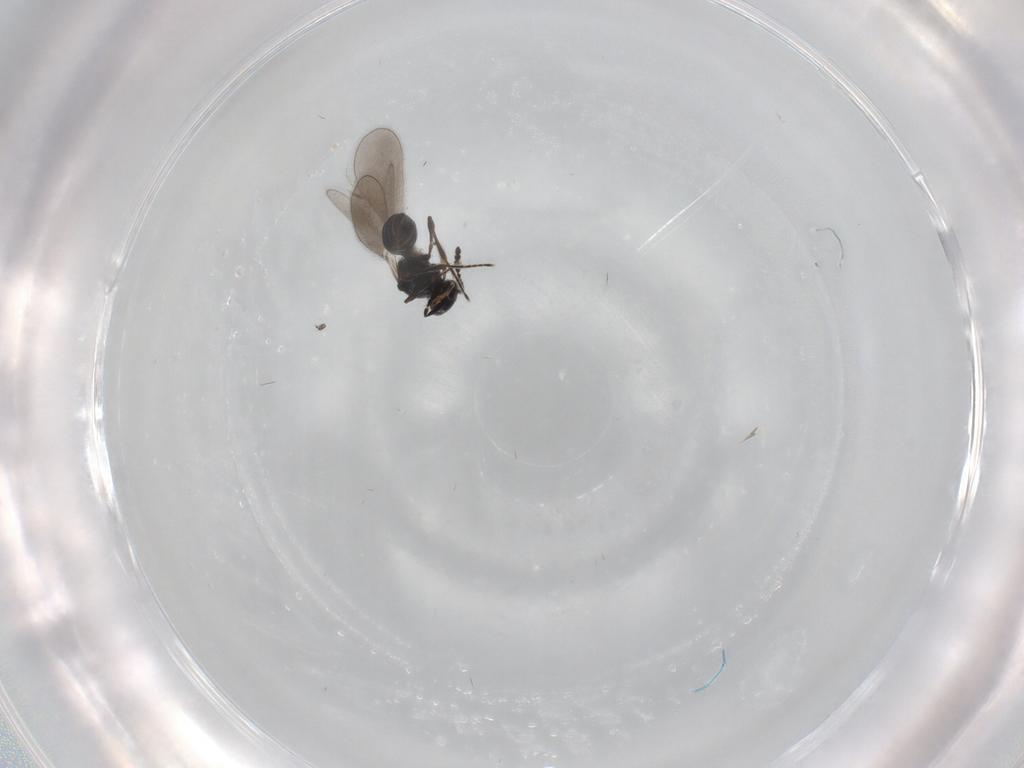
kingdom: Animalia
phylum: Arthropoda
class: Insecta
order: Hymenoptera
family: Platygastridae
